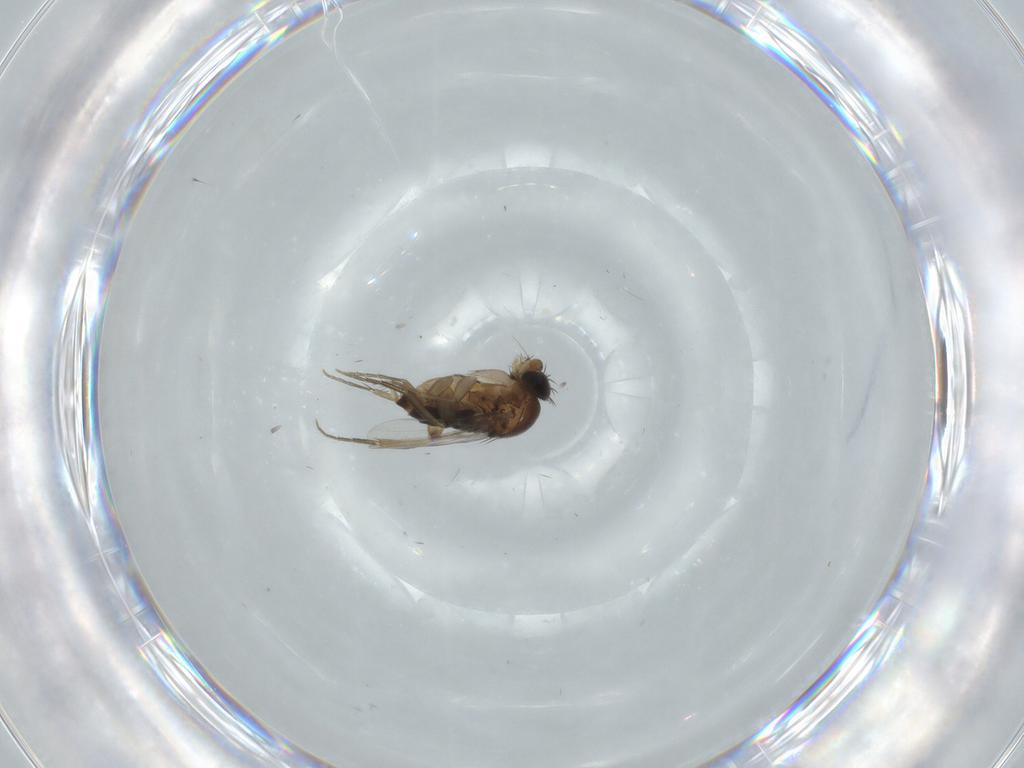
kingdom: Animalia
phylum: Arthropoda
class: Insecta
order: Diptera
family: Phoridae
